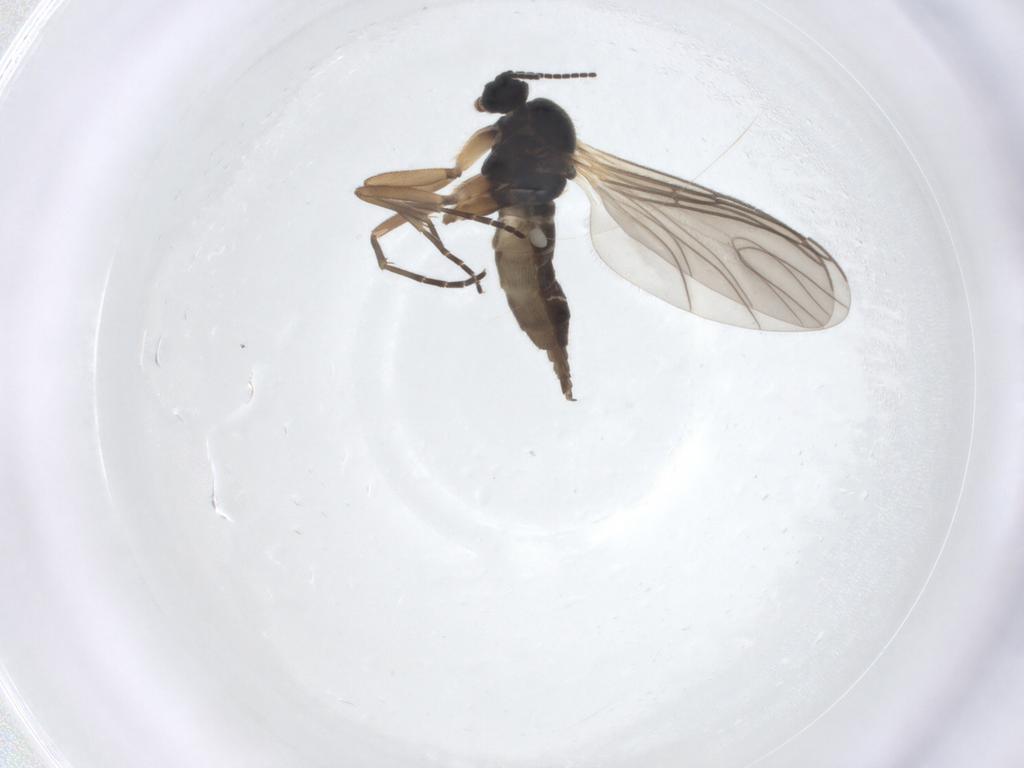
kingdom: Animalia
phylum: Arthropoda
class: Insecta
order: Diptera
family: Sciaridae
